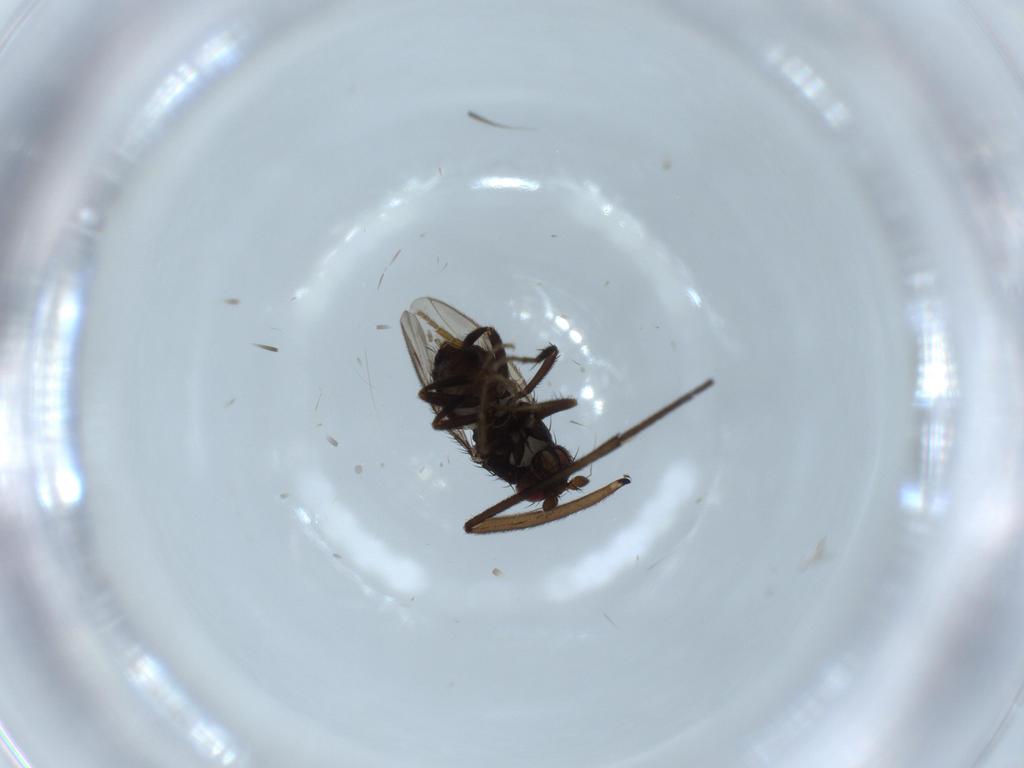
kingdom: Animalia
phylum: Arthropoda
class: Insecta
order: Diptera
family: Sphaeroceridae
